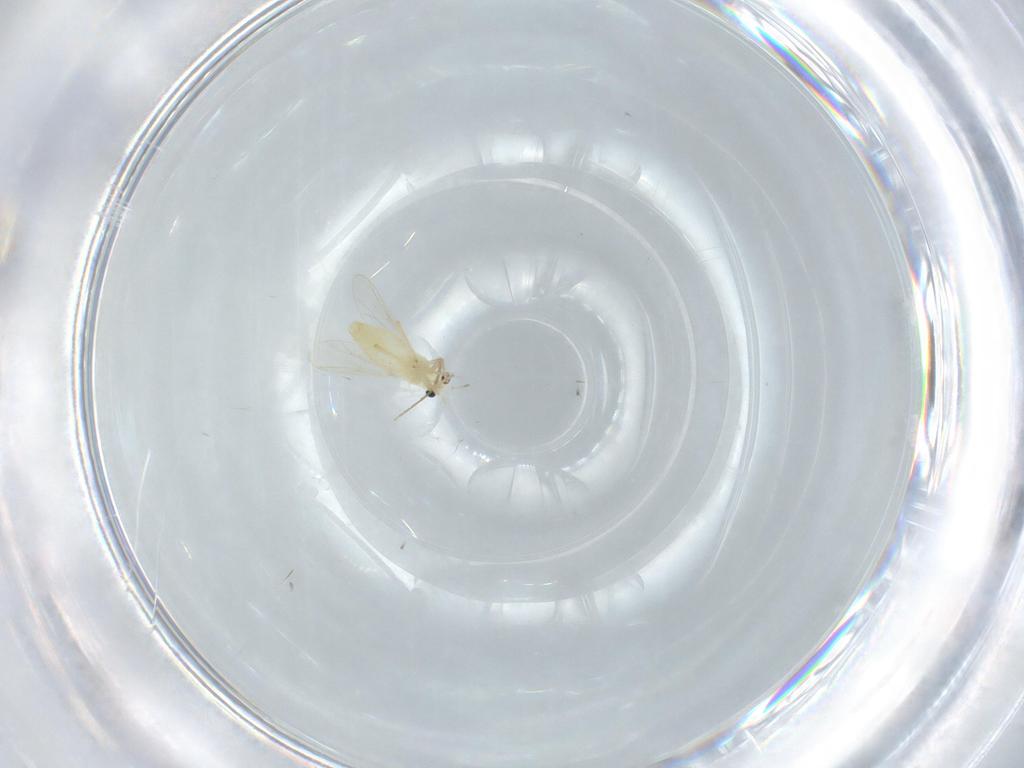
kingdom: Animalia
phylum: Arthropoda
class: Insecta
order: Diptera
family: Chironomidae
